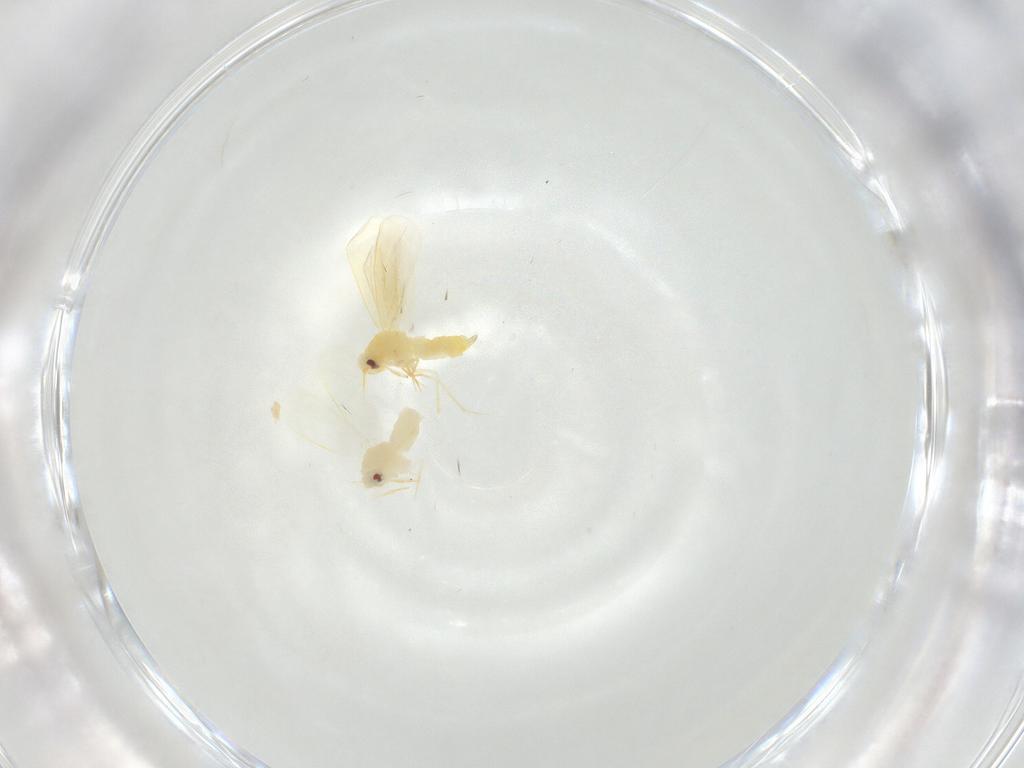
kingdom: Animalia
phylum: Arthropoda
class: Insecta
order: Hemiptera
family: Aleyrodidae
